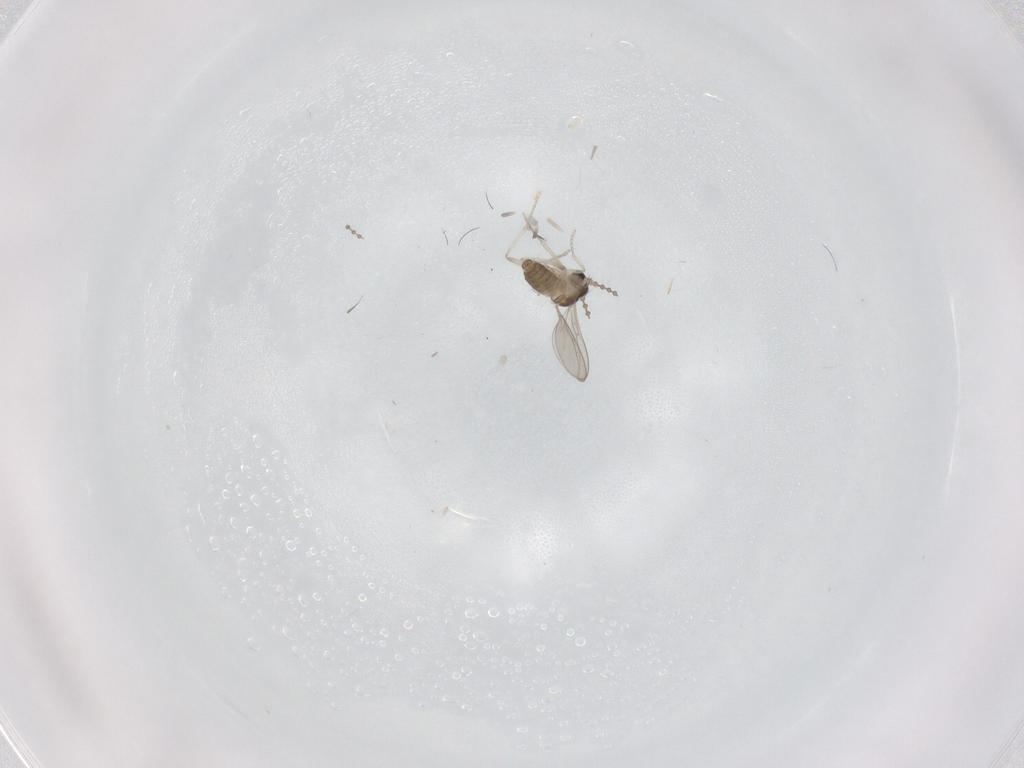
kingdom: Animalia
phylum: Arthropoda
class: Insecta
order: Diptera
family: Cecidomyiidae
